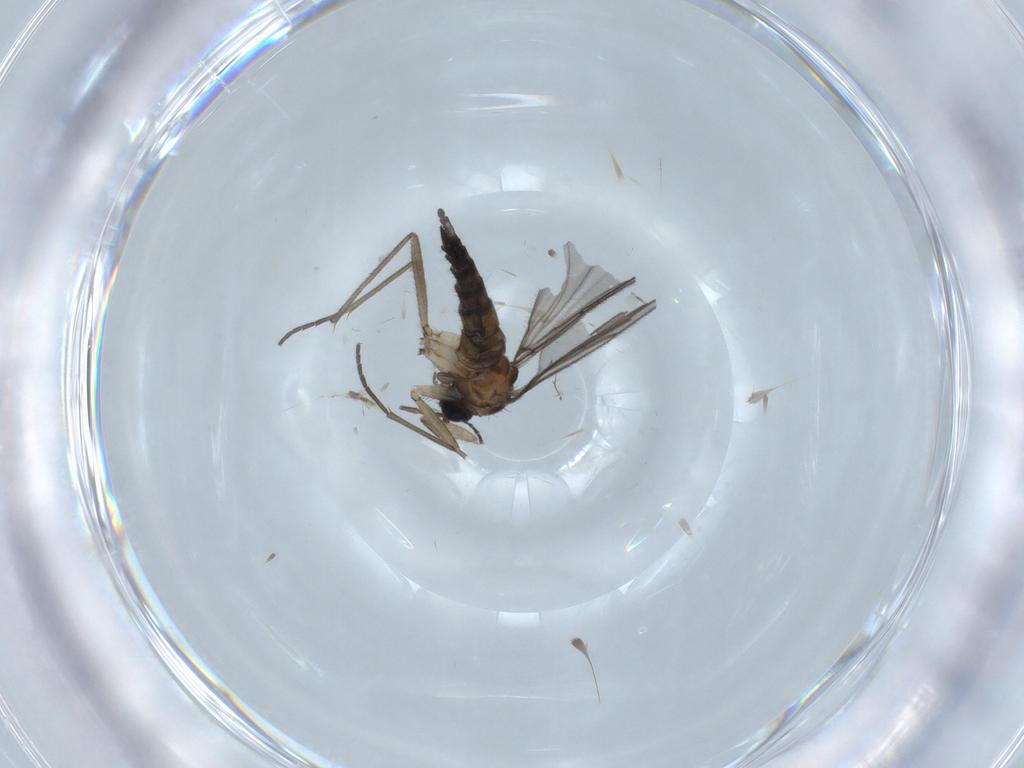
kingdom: Animalia
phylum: Arthropoda
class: Insecta
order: Diptera
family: Sciaridae
